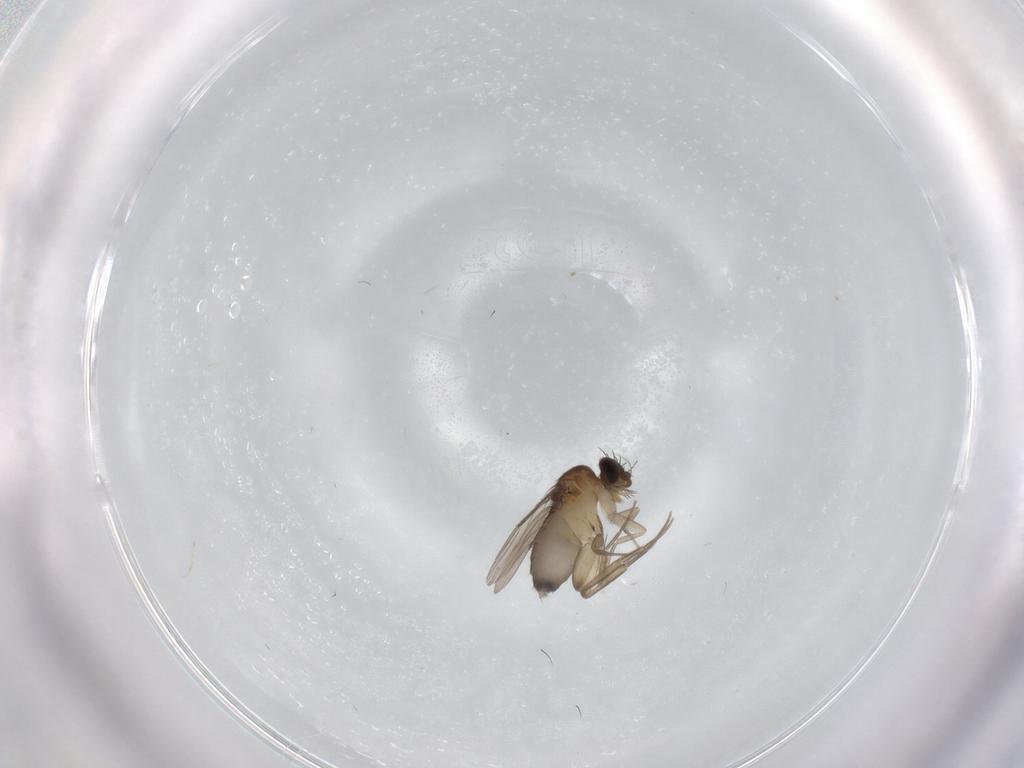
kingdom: Animalia
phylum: Arthropoda
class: Insecta
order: Diptera
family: Phoridae
